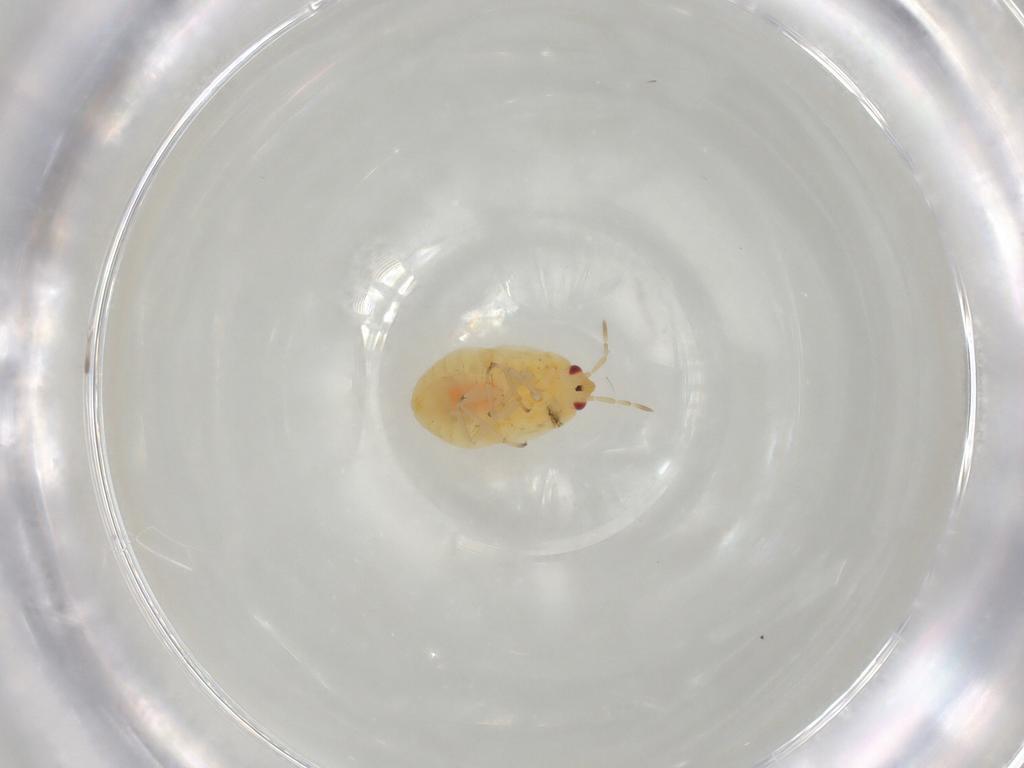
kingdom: Animalia
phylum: Arthropoda
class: Insecta
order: Hemiptera
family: Anthocoridae
